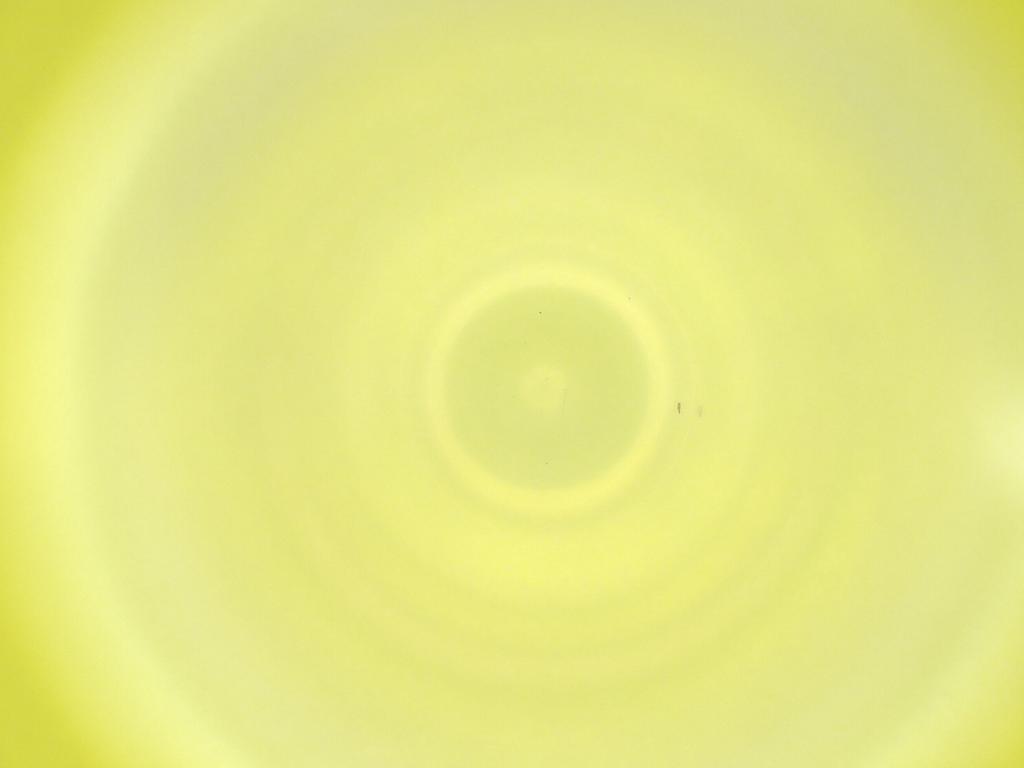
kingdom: Animalia
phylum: Arthropoda
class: Insecta
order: Diptera
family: Cecidomyiidae
